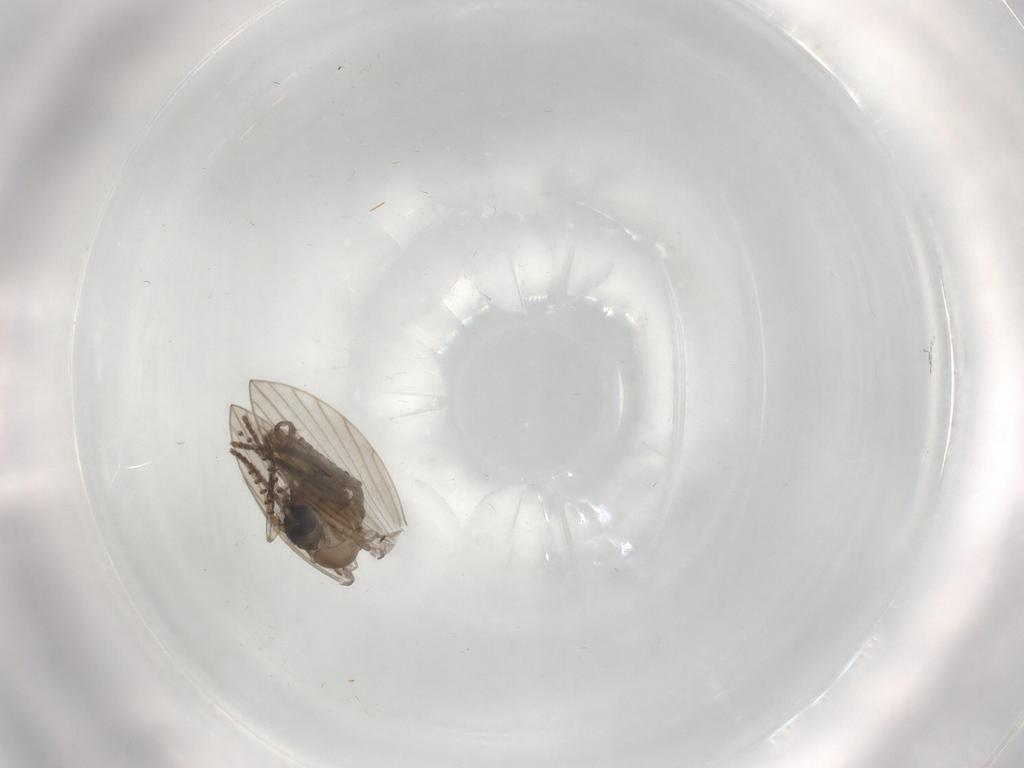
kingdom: Animalia
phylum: Arthropoda
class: Insecta
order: Diptera
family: Psychodidae
